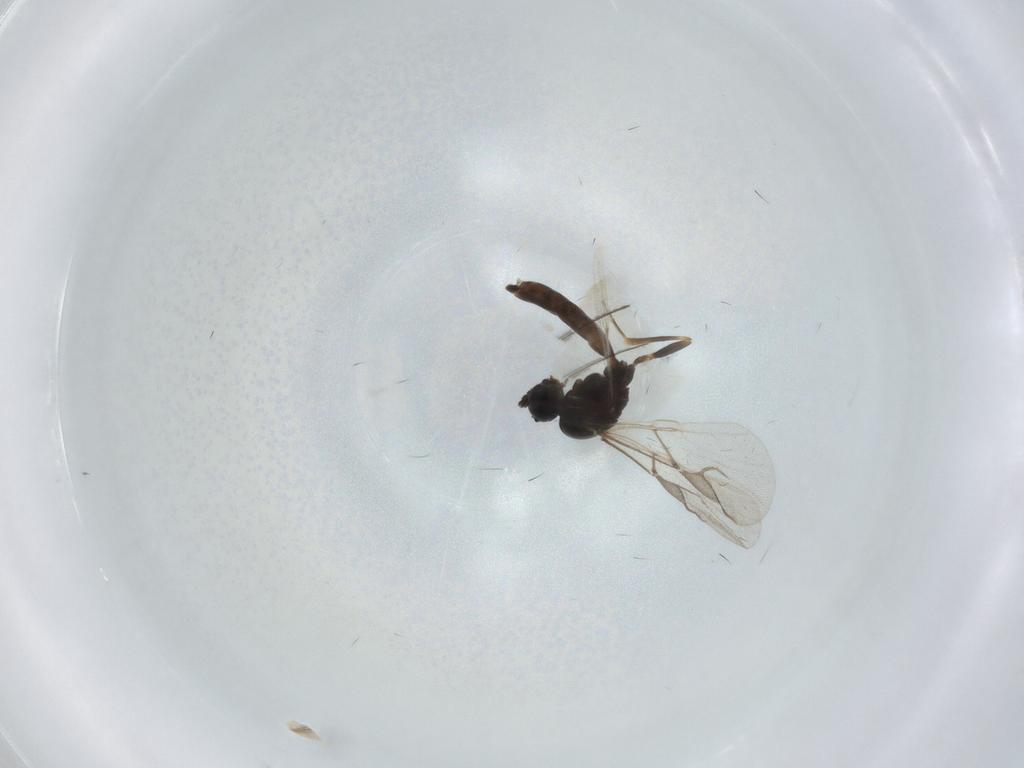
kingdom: Animalia
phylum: Arthropoda
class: Insecta
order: Hymenoptera
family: Braconidae
